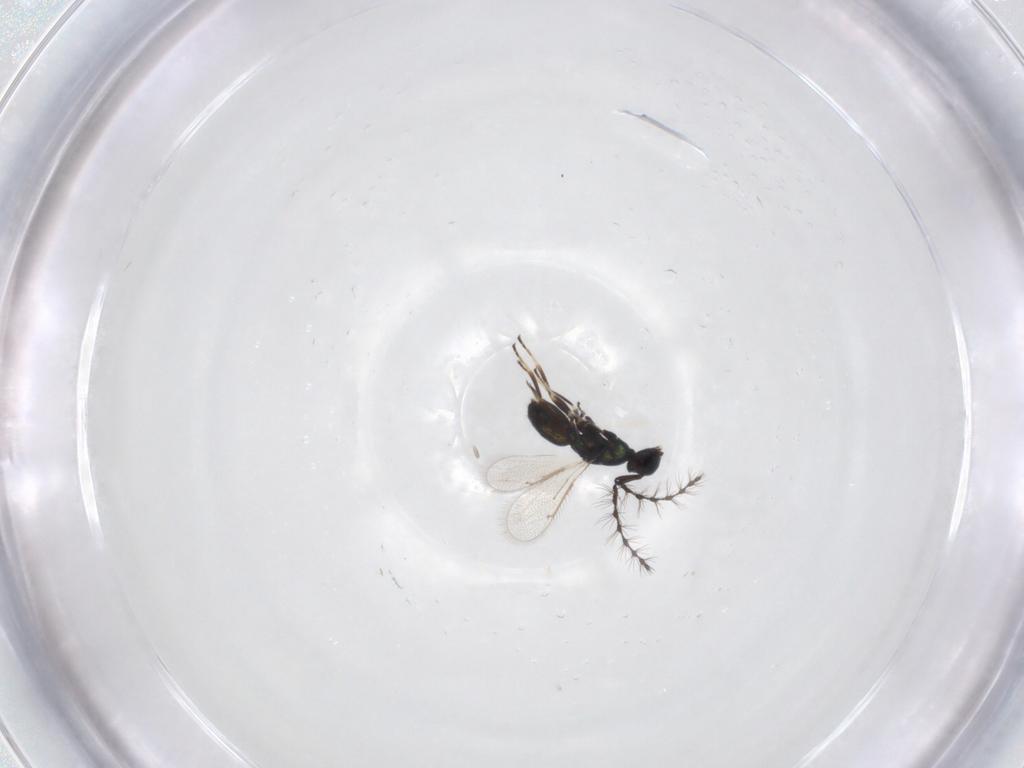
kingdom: Animalia
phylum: Arthropoda
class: Insecta
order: Hymenoptera
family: Eulophidae
